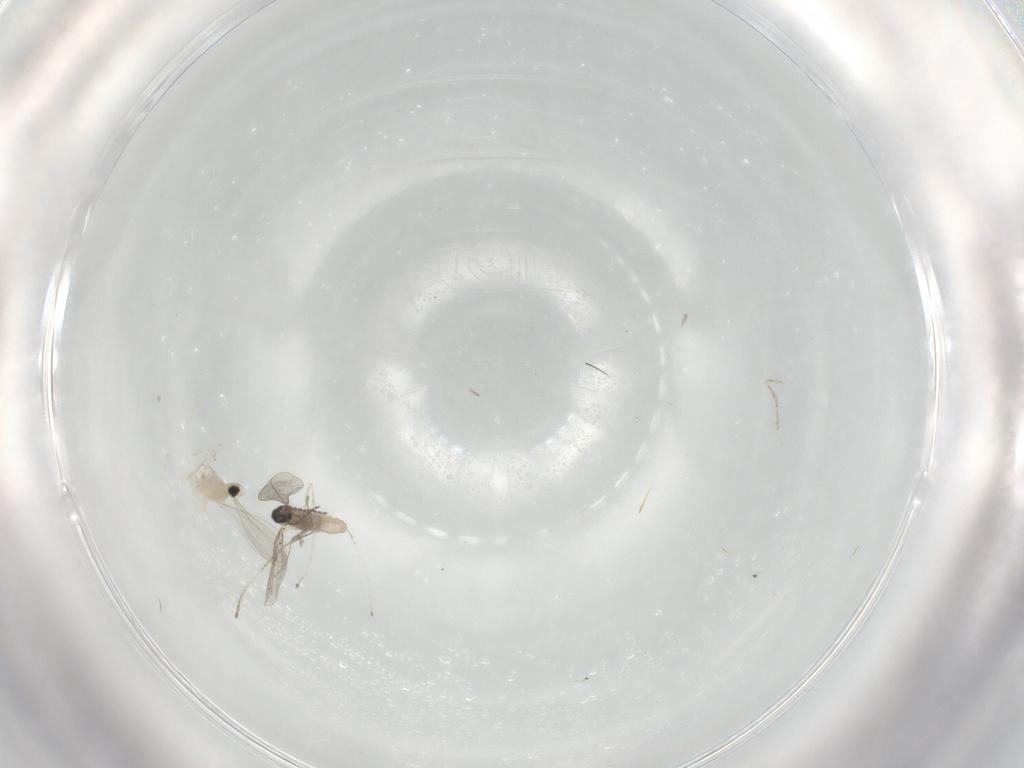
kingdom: Animalia
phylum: Arthropoda
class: Insecta
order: Diptera
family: Cecidomyiidae
